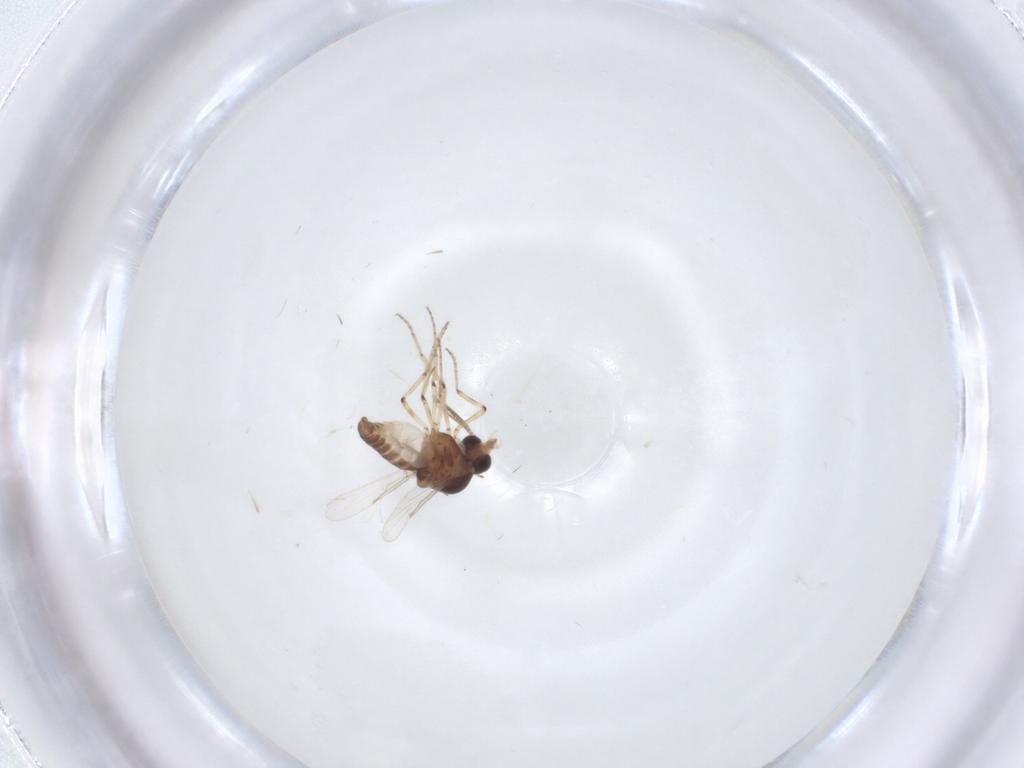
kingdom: Animalia
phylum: Arthropoda
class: Insecta
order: Diptera
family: Ceratopogonidae
